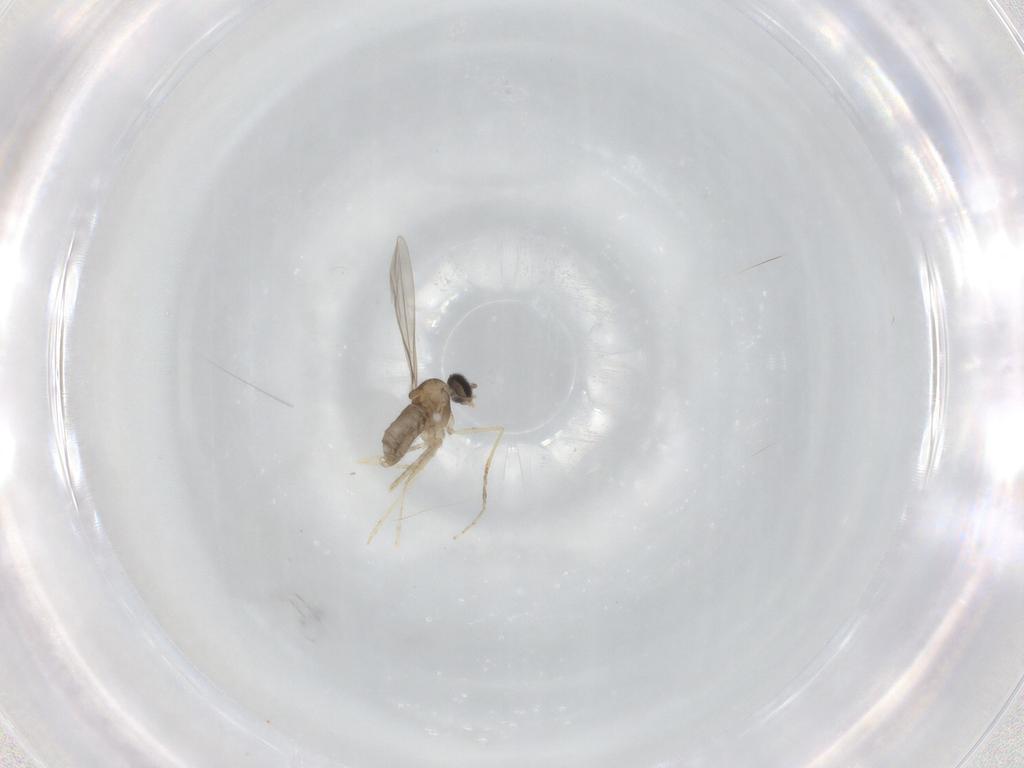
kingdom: Animalia
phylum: Arthropoda
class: Insecta
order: Diptera
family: Cecidomyiidae
